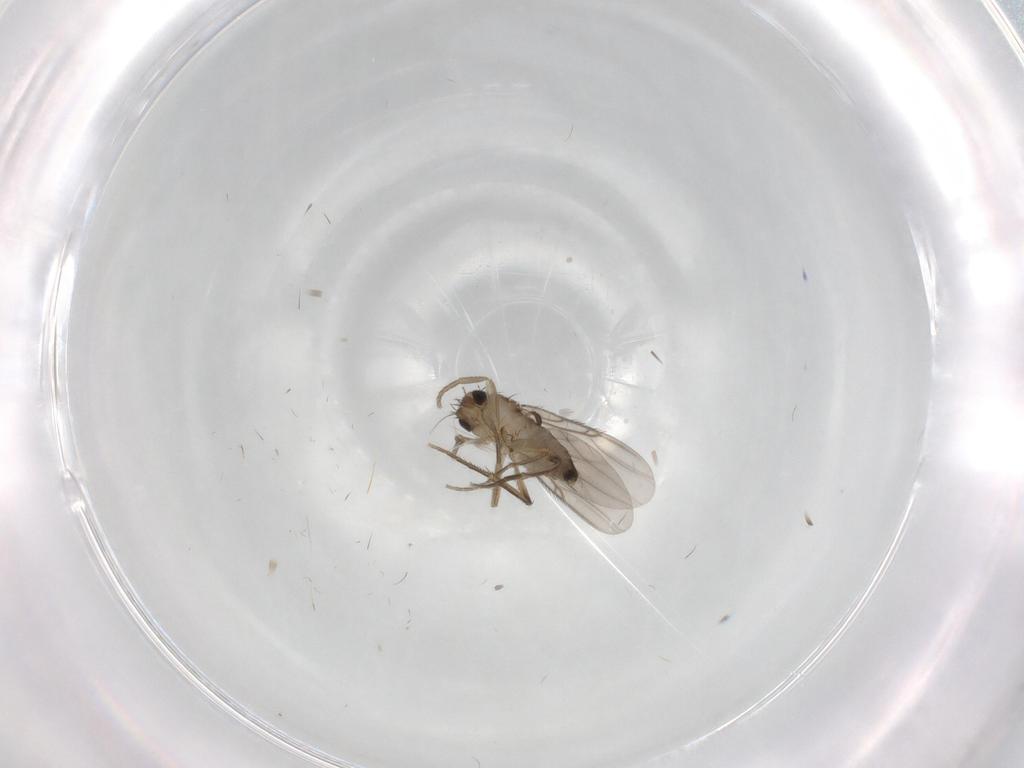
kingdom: Animalia
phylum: Arthropoda
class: Insecta
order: Diptera
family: Phoridae
